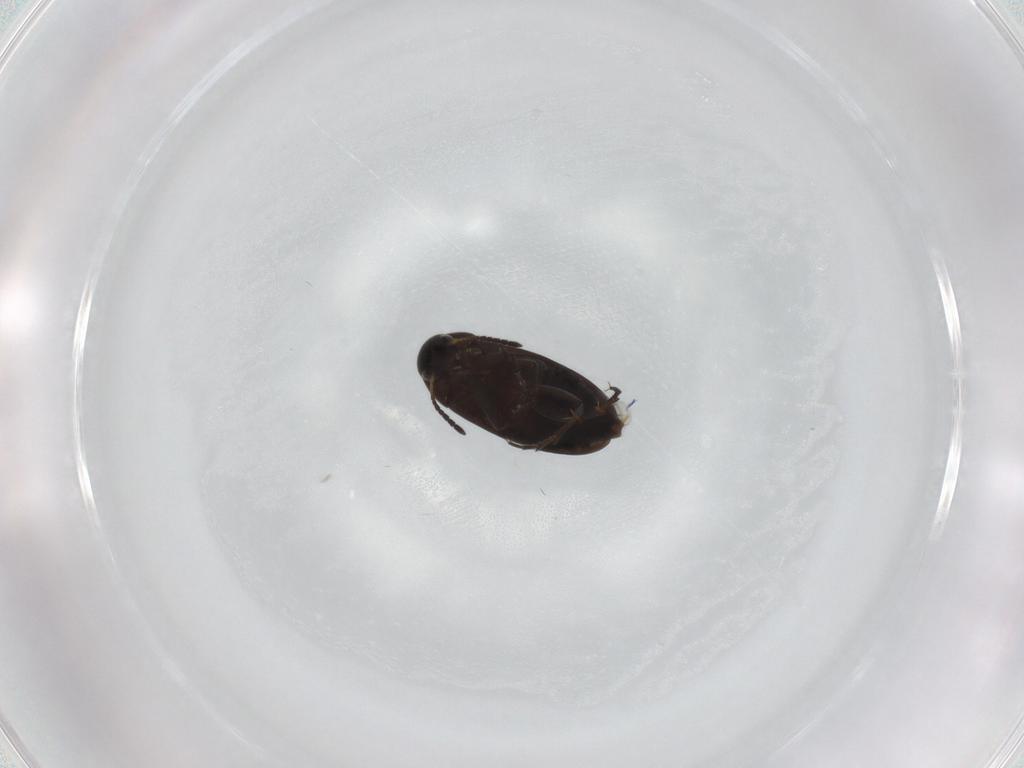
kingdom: Animalia
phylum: Arthropoda
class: Insecta
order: Coleoptera
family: Scraptiidae
